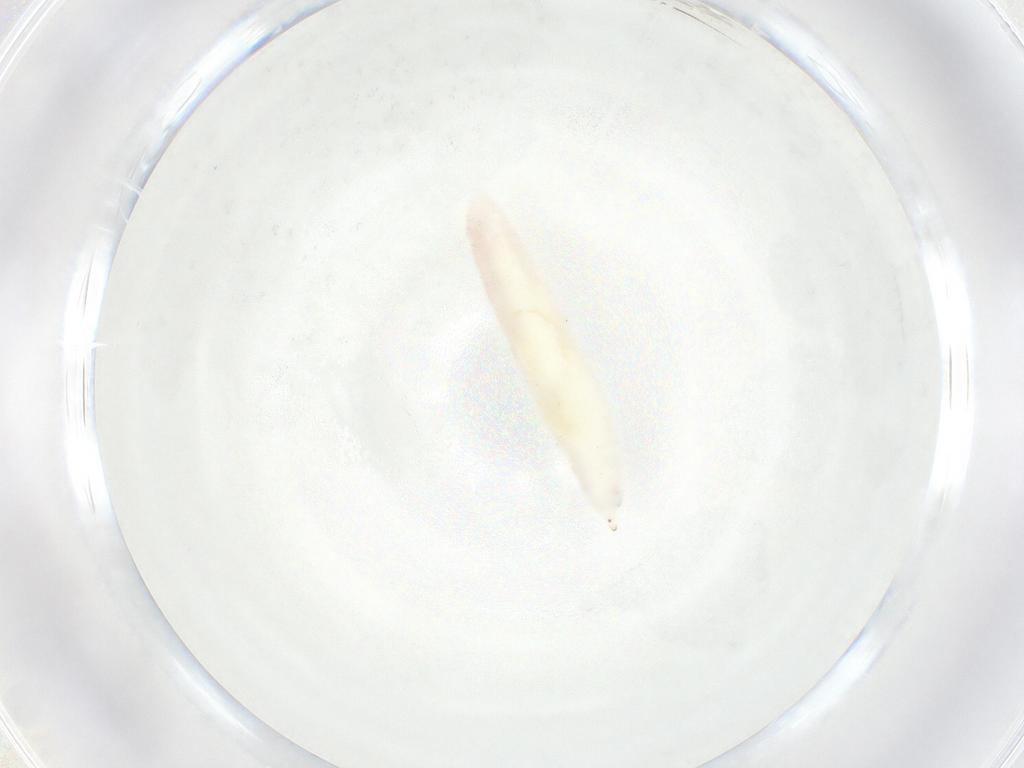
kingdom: Animalia
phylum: Arthropoda
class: Insecta
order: Diptera
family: Cecidomyiidae
